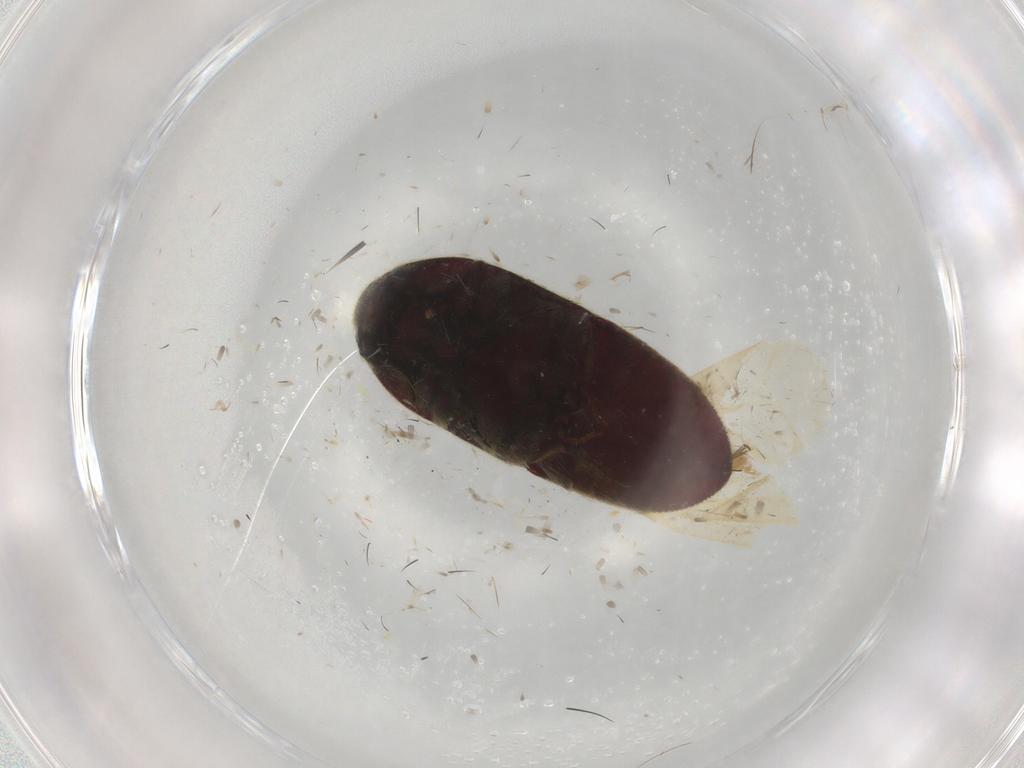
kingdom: Animalia
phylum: Arthropoda
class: Insecta
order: Coleoptera
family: Throscidae
